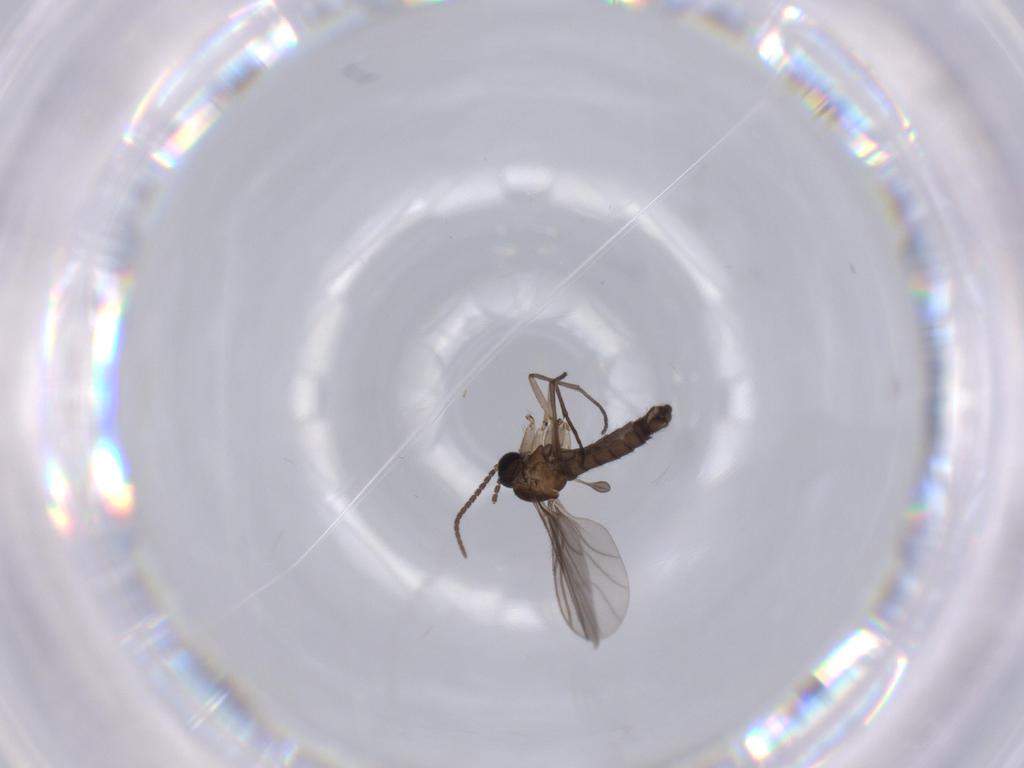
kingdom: Animalia
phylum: Arthropoda
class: Insecta
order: Diptera
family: Sciaridae
